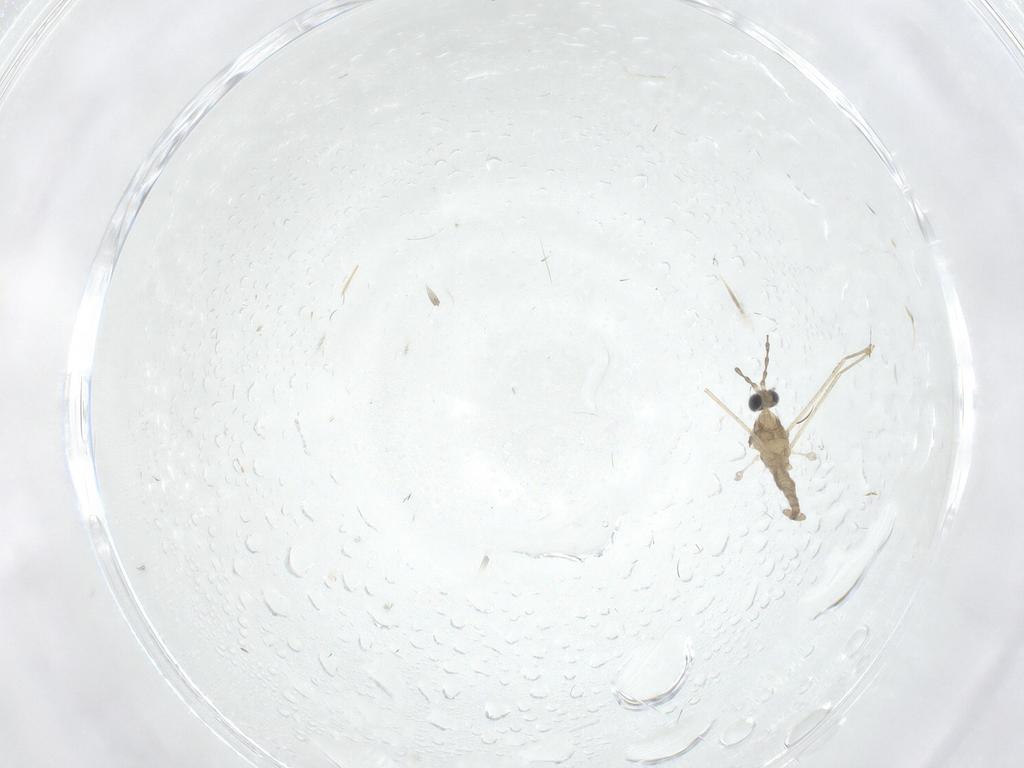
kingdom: Animalia
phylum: Arthropoda
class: Insecta
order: Diptera
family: Cecidomyiidae
